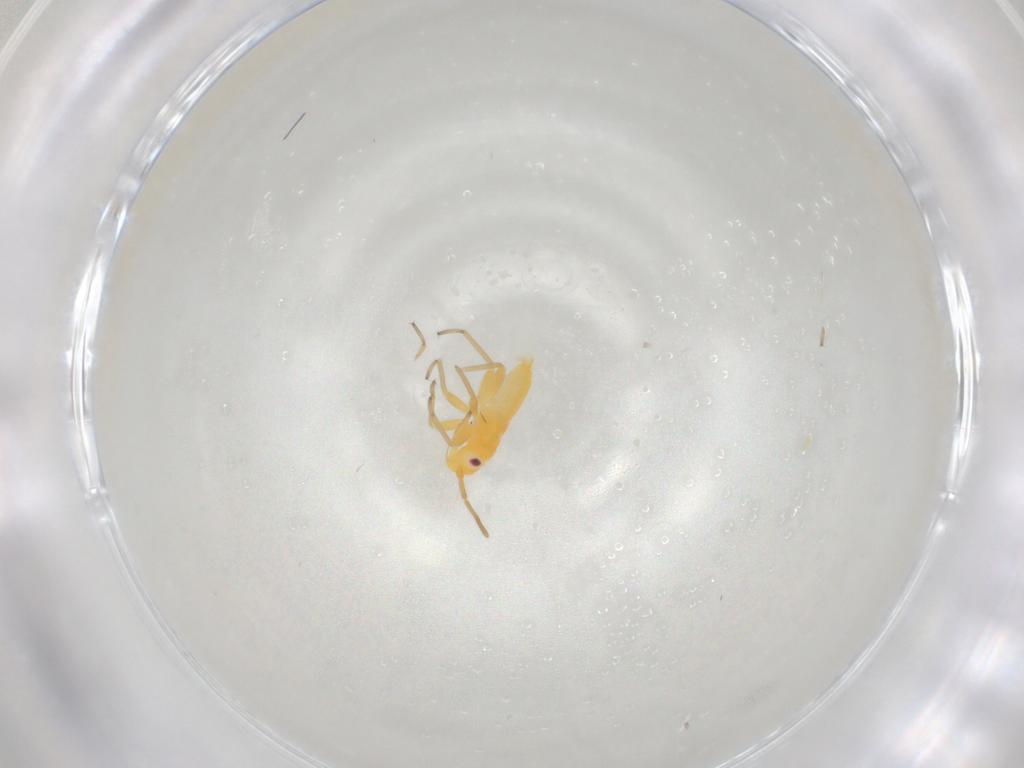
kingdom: Animalia
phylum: Arthropoda
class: Insecta
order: Hemiptera
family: Miridae
